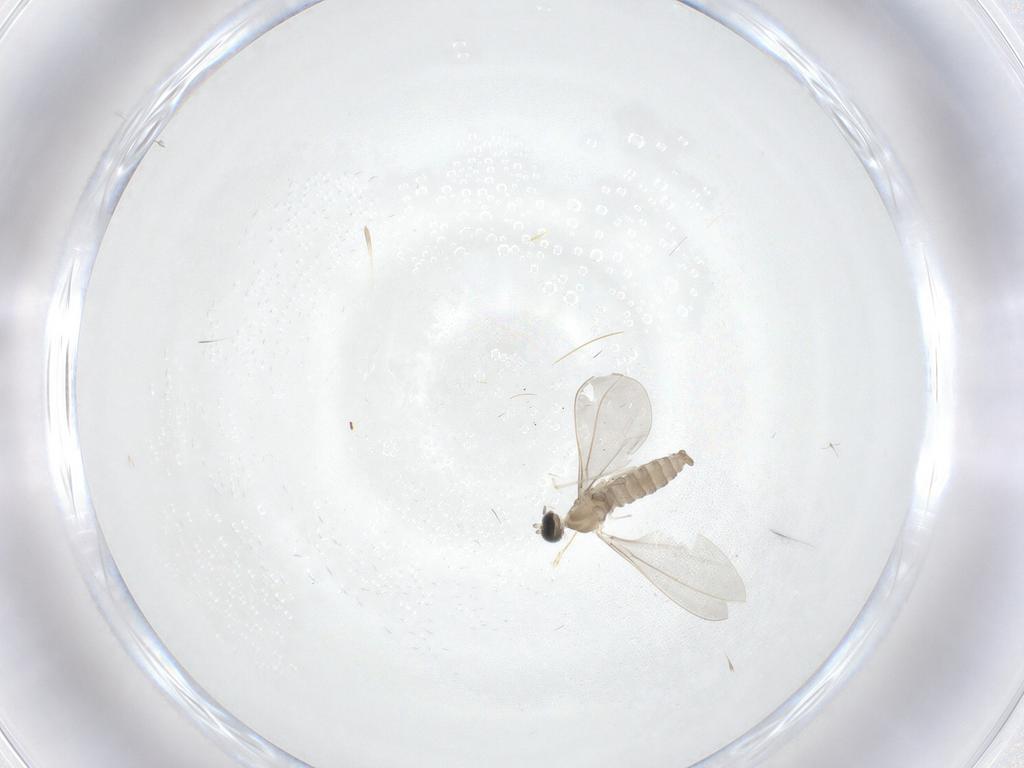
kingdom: Animalia
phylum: Arthropoda
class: Insecta
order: Diptera
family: Cecidomyiidae
